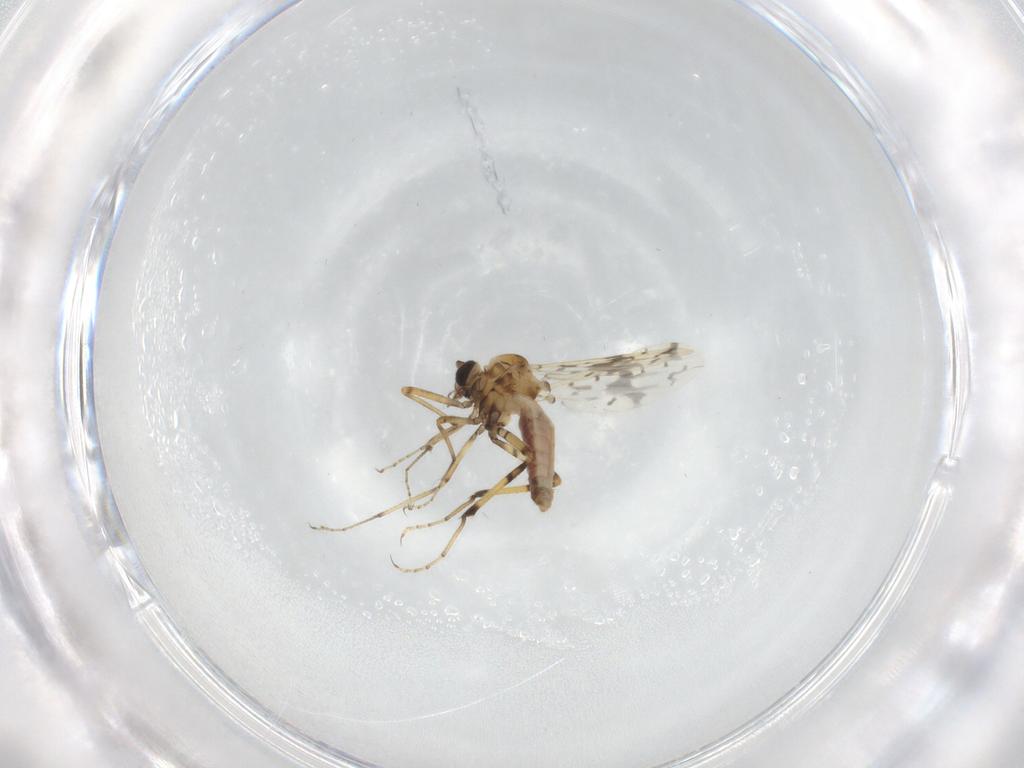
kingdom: Animalia
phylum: Arthropoda
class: Insecta
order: Diptera
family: Ceratopogonidae
